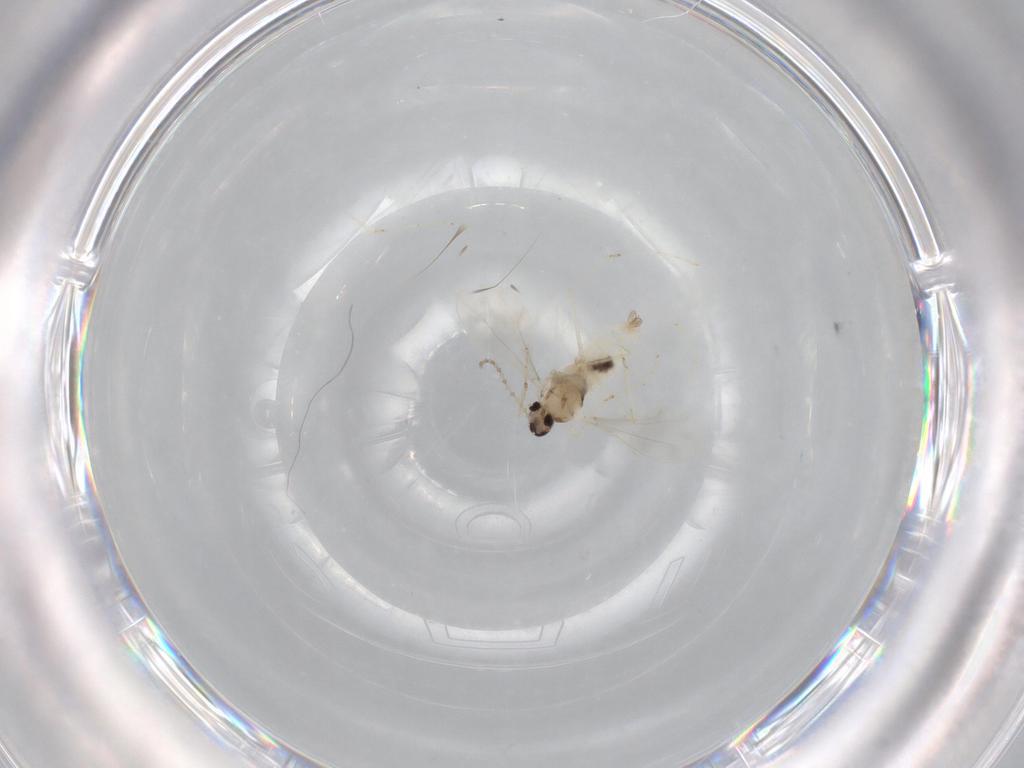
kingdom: Animalia
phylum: Arthropoda
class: Insecta
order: Diptera
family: Cecidomyiidae
